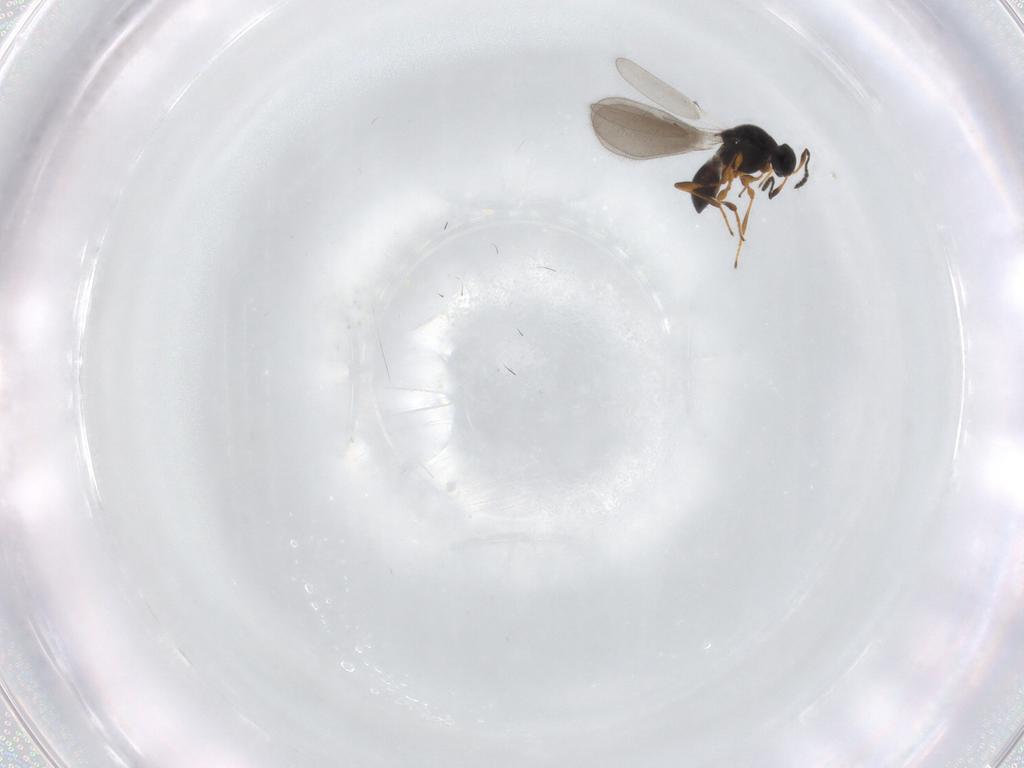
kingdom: Animalia
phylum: Arthropoda
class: Insecta
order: Hymenoptera
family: Platygastridae
